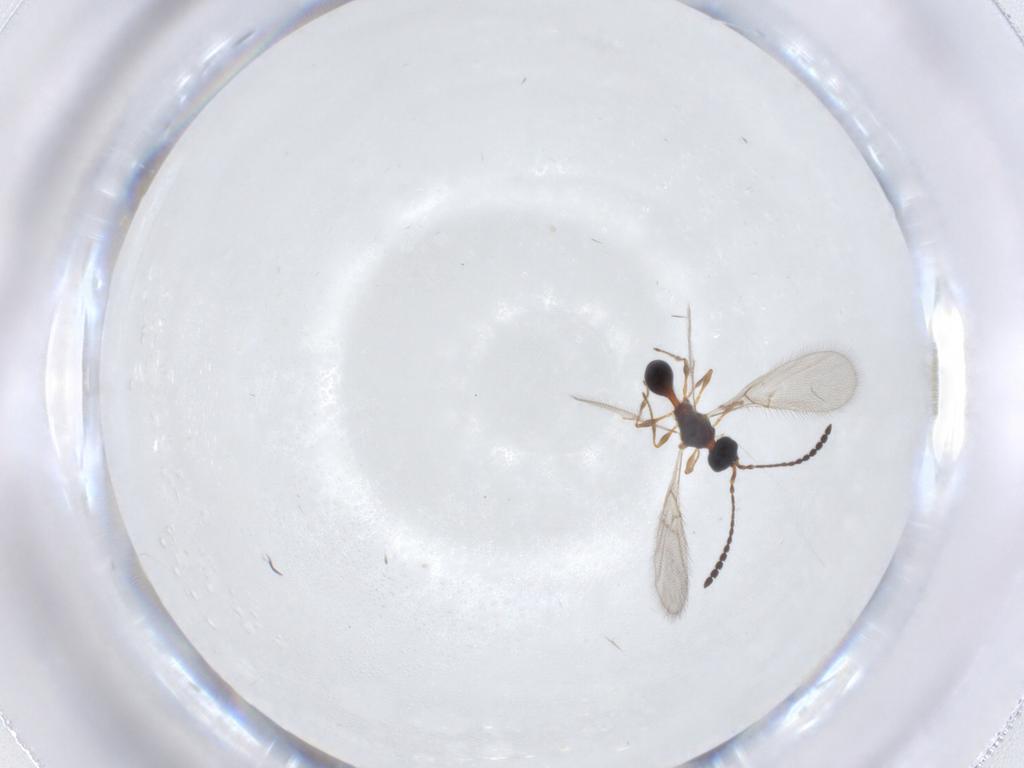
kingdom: Animalia
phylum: Arthropoda
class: Insecta
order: Hymenoptera
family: Diapriidae
